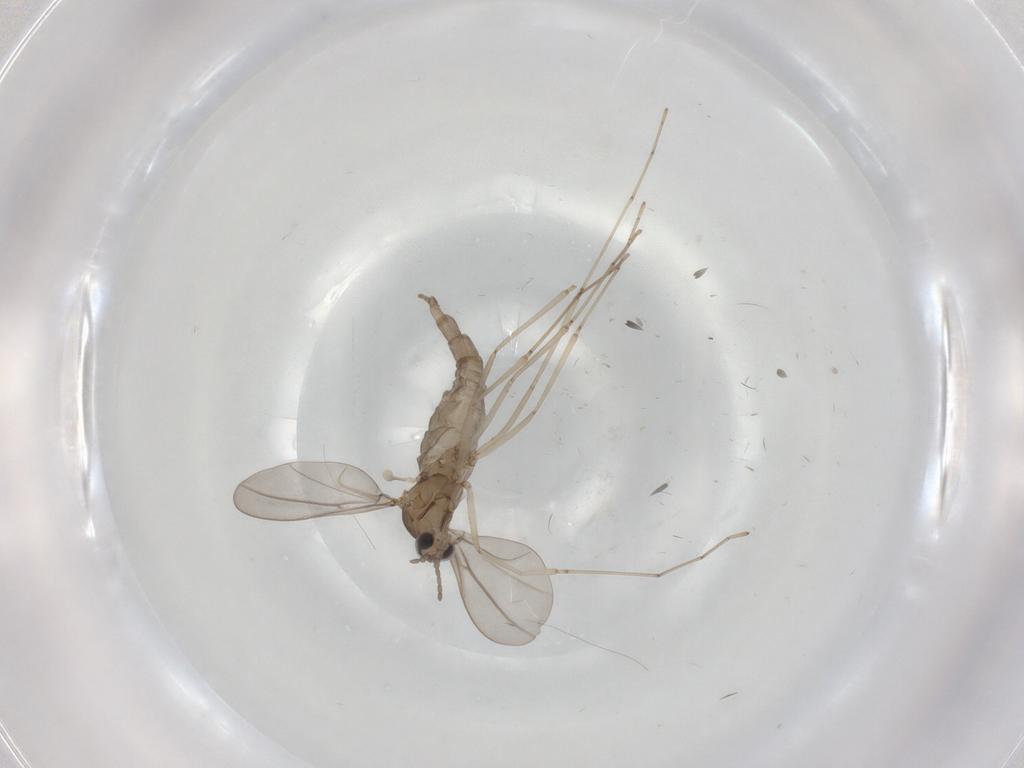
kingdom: Animalia
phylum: Arthropoda
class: Insecta
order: Diptera
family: Cecidomyiidae
